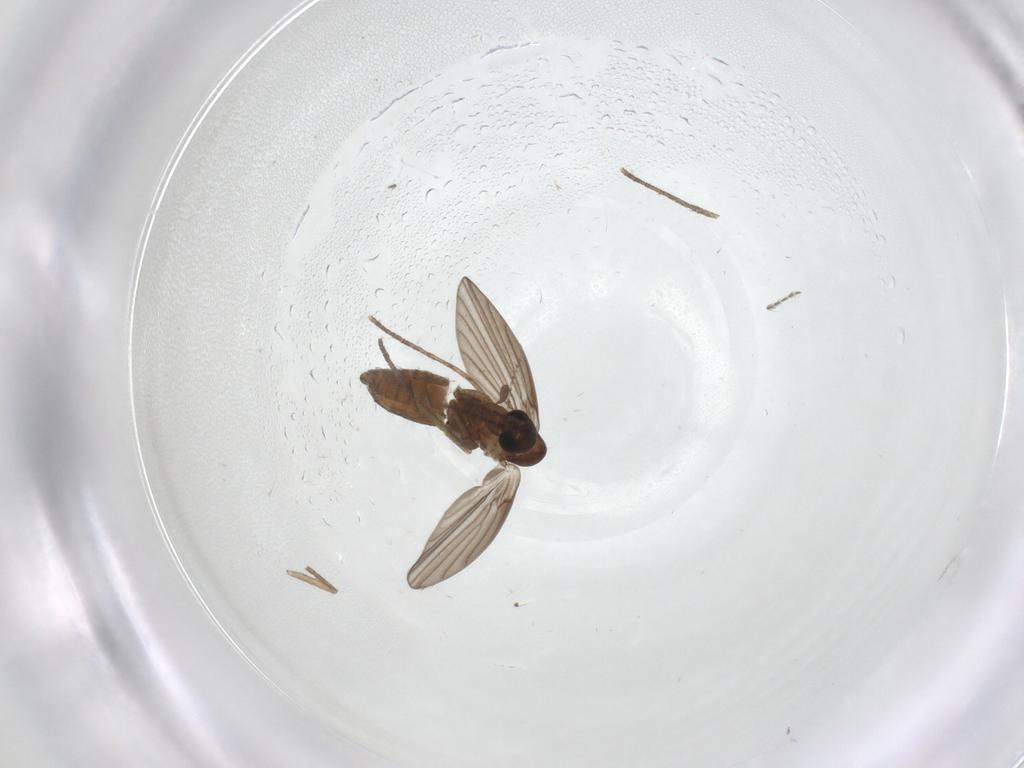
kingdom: Animalia
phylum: Arthropoda
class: Insecta
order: Diptera
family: Psychodidae
